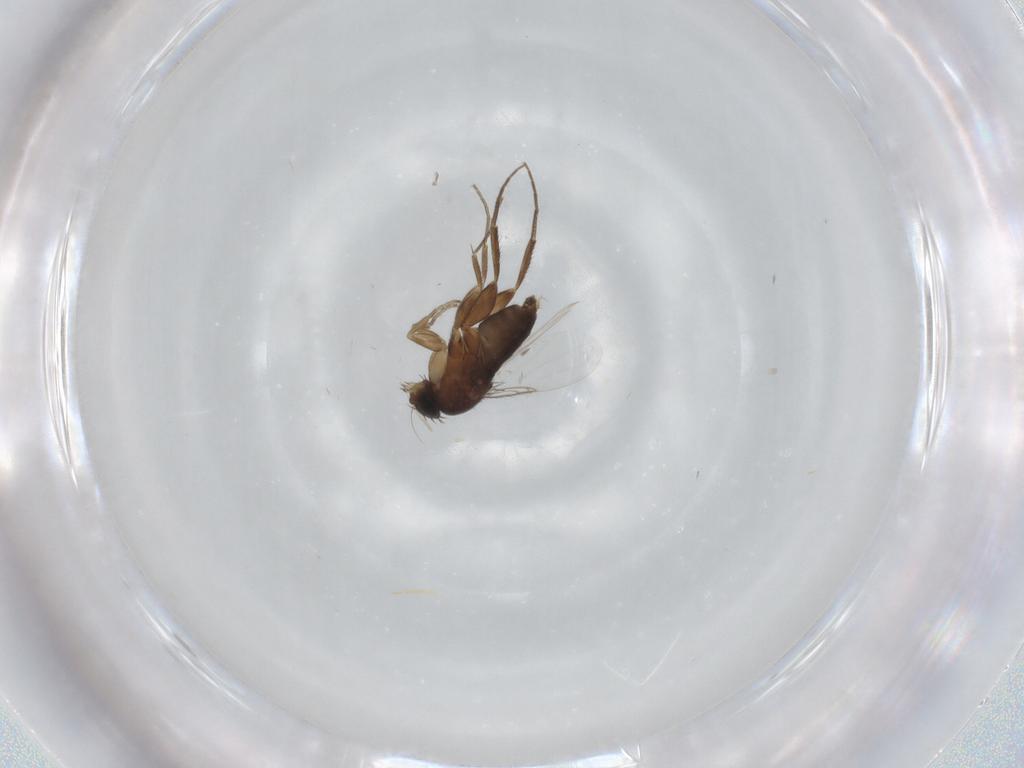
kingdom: Animalia
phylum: Arthropoda
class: Insecta
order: Diptera
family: Phoridae
